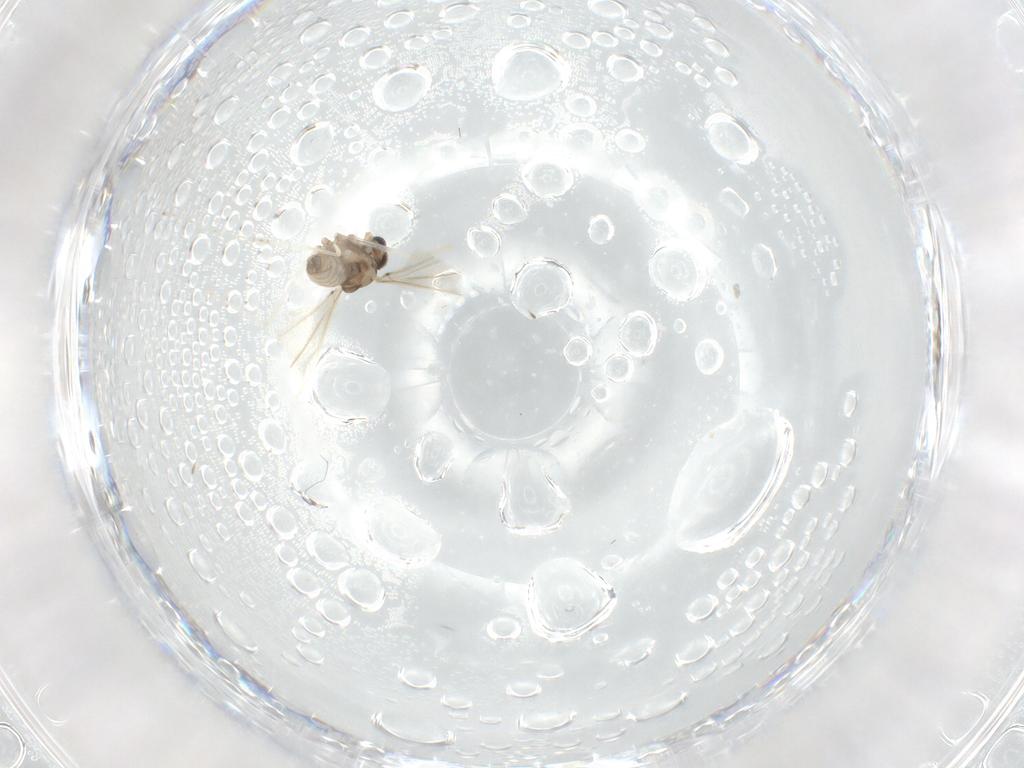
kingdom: Animalia
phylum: Arthropoda
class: Insecta
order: Diptera
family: Cecidomyiidae
